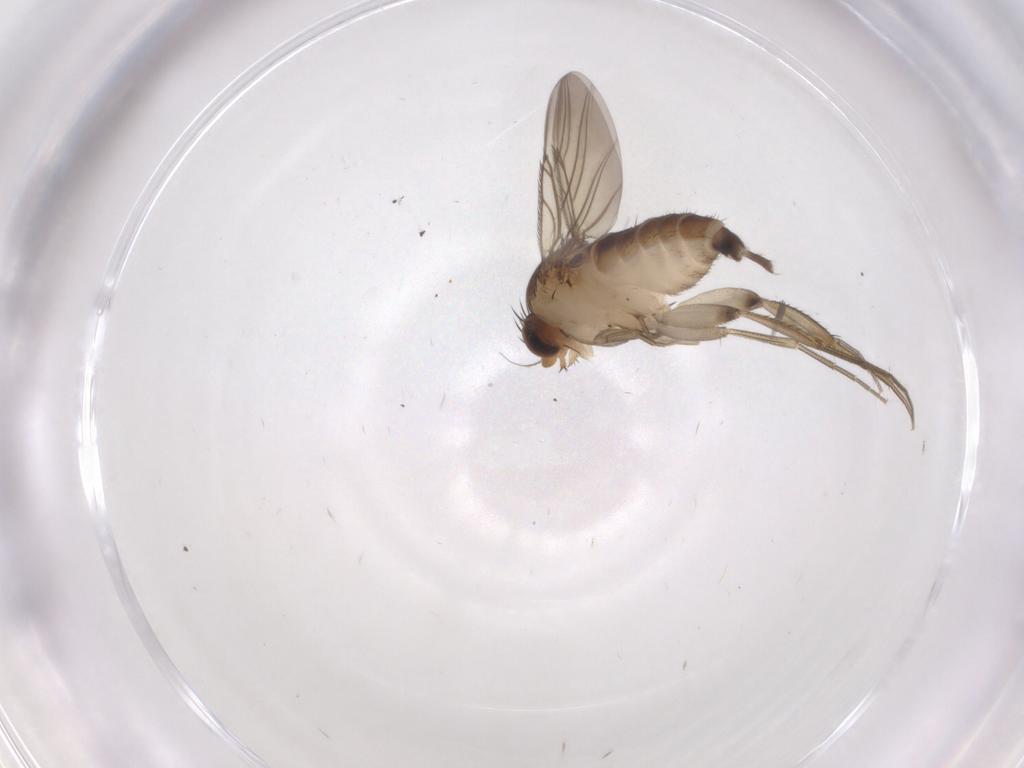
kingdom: Animalia
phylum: Arthropoda
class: Insecta
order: Diptera
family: Phoridae
